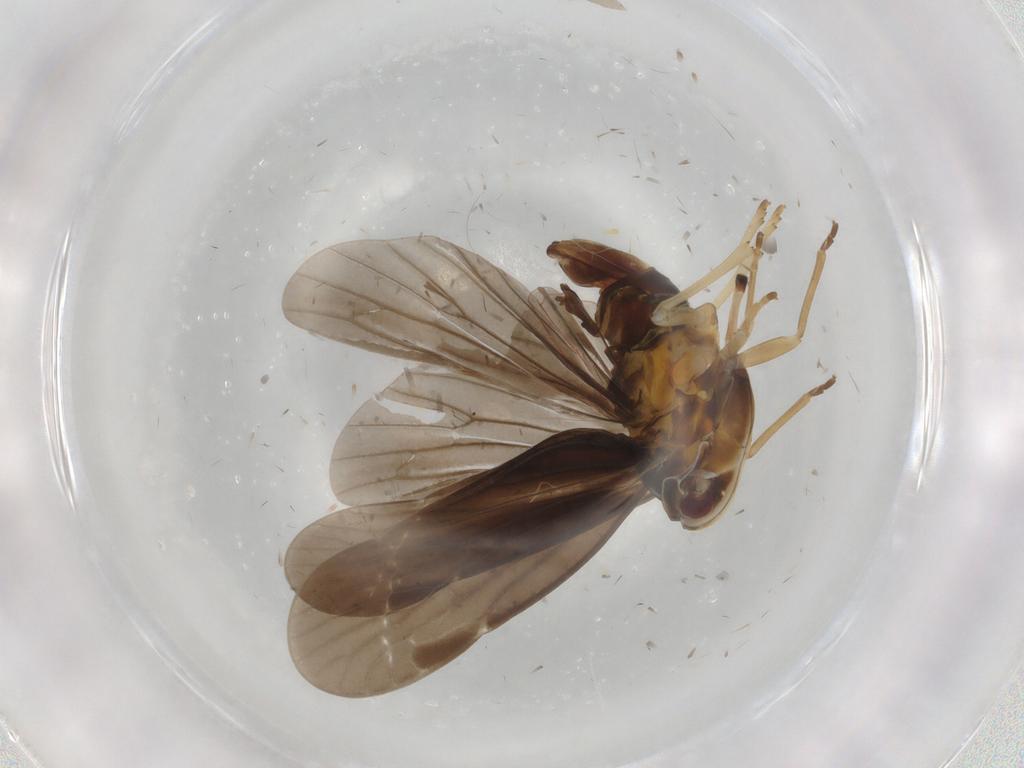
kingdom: Animalia
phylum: Arthropoda
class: Insecta
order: Hemiptera
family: Derbidae
